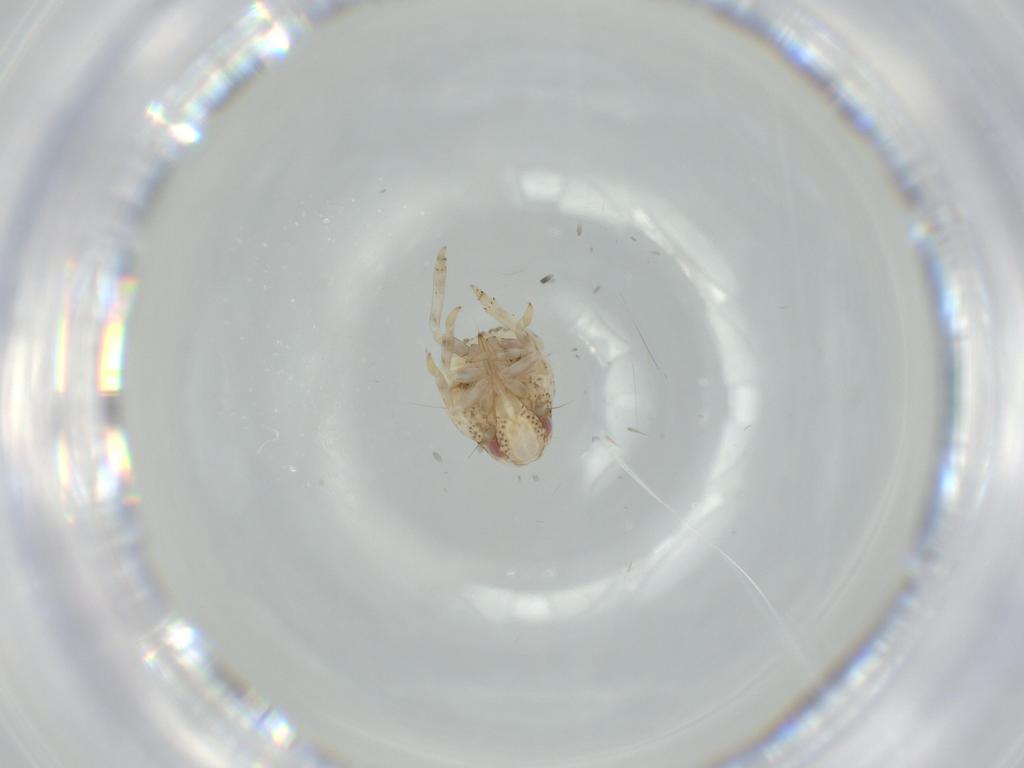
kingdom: Animalia
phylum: Arthropoda
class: Insecta
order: Hemiptera
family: Acanaloniidae
